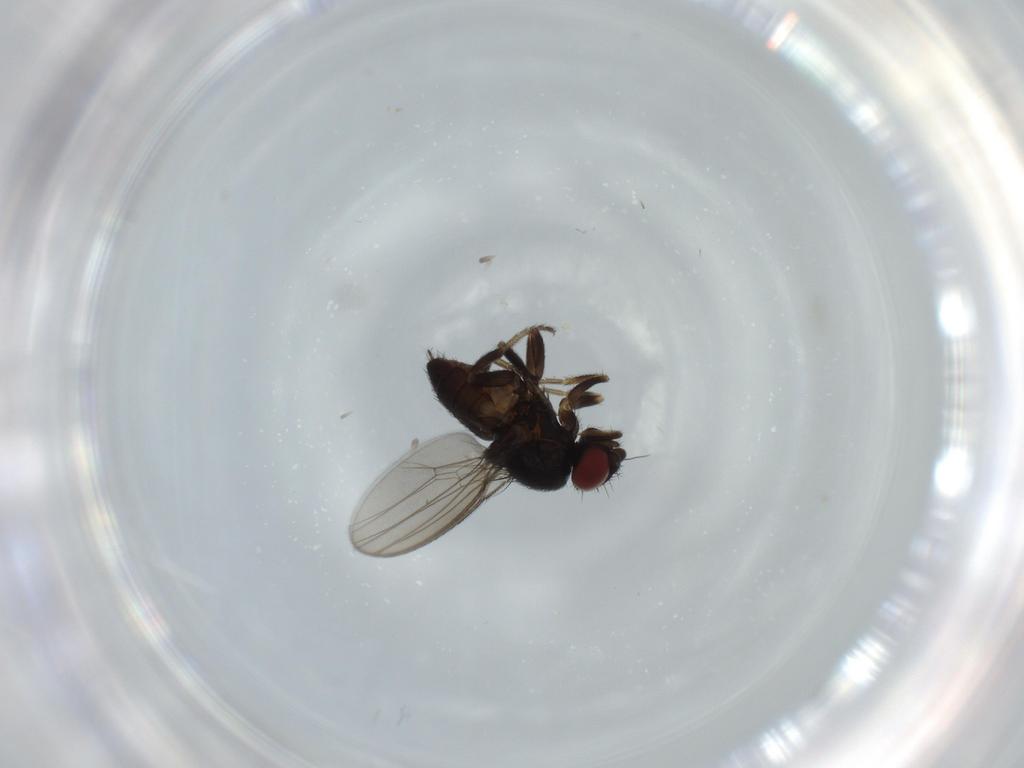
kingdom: Animalia
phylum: Arthropoda
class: Insecta
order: Diptera
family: Milichiidae
